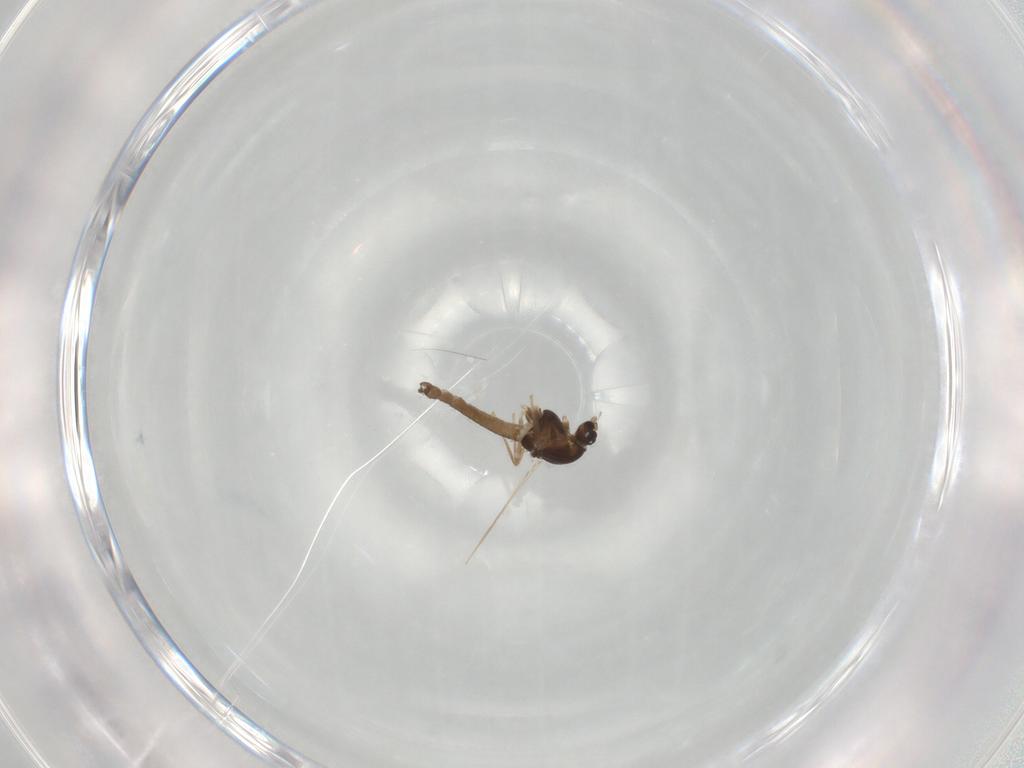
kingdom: Animalia
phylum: Arthropoda
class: Insecta
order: Diptera
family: Chironomidae
